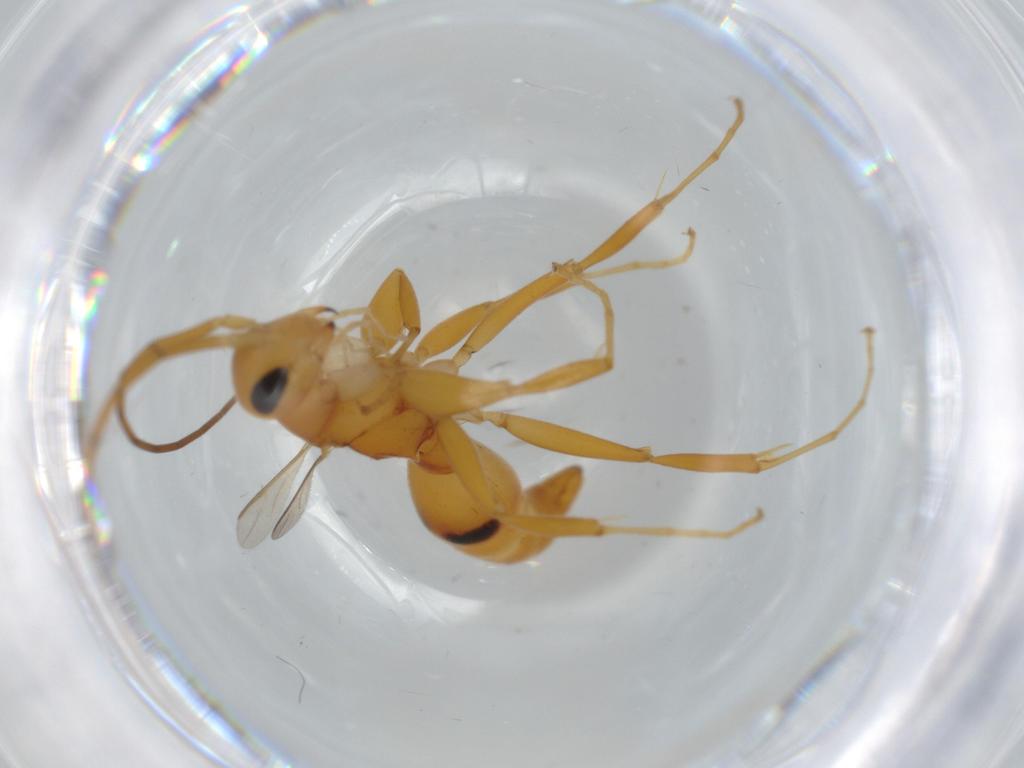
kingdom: Animalia
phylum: Arthropoda
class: Insecta
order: Hymenoptera
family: Rhopalosomatidae
